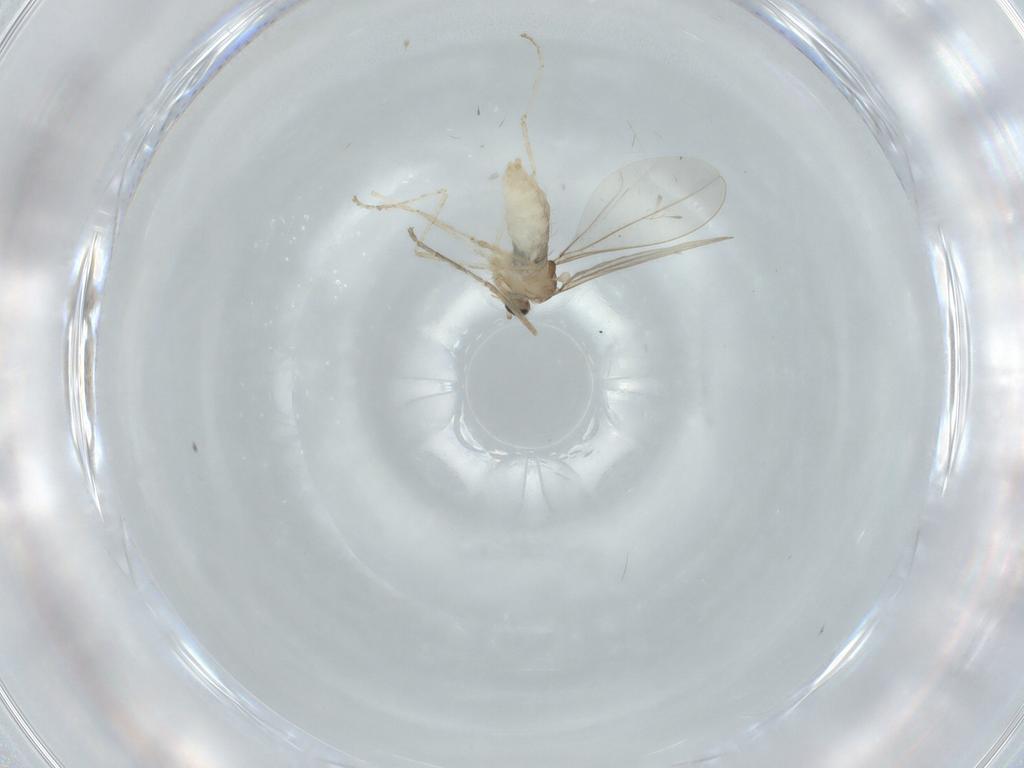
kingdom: Animalia
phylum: Arthropoda
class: Insecta
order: Diptera
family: Cecidomyiidae
